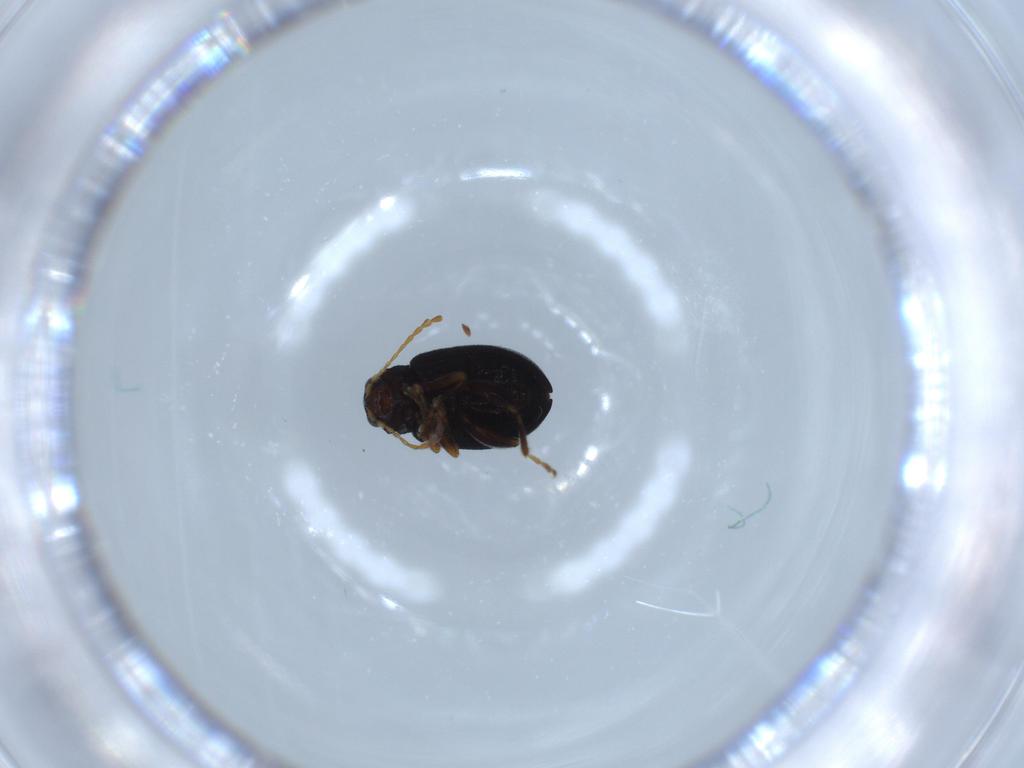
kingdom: Animalia
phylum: Arthropoda
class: Insecta
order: Coleoptera
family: Chrysomelidae
